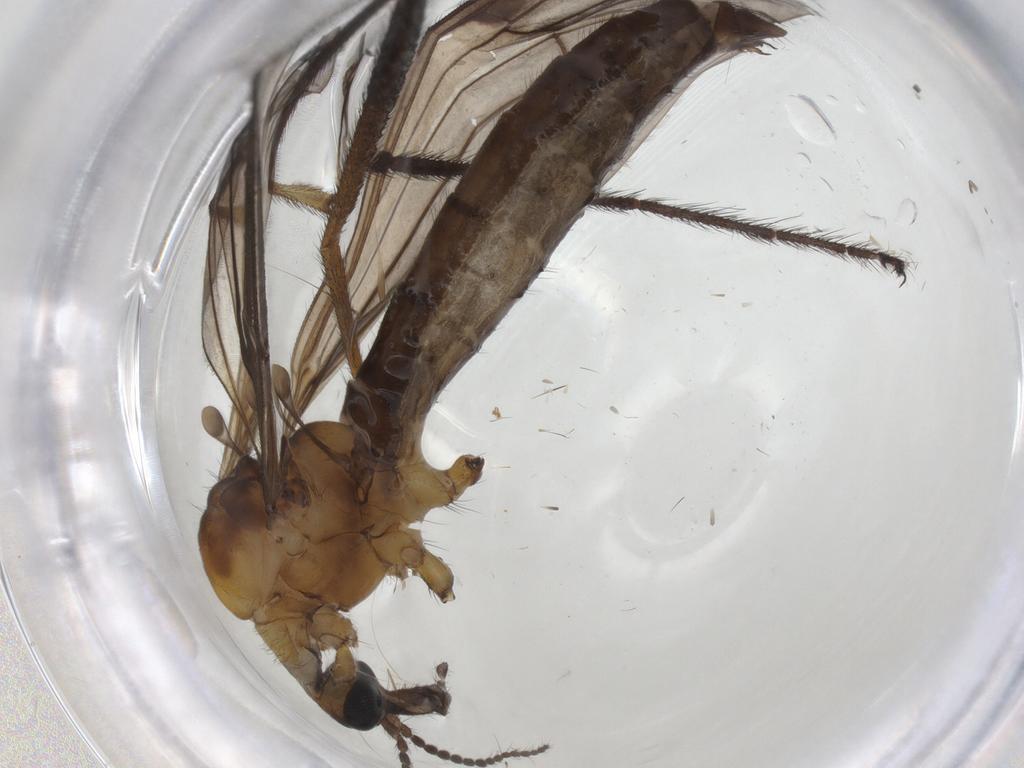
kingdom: Animalia
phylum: Arthropoda
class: Insecta
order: Diptera
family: Limoniidae
